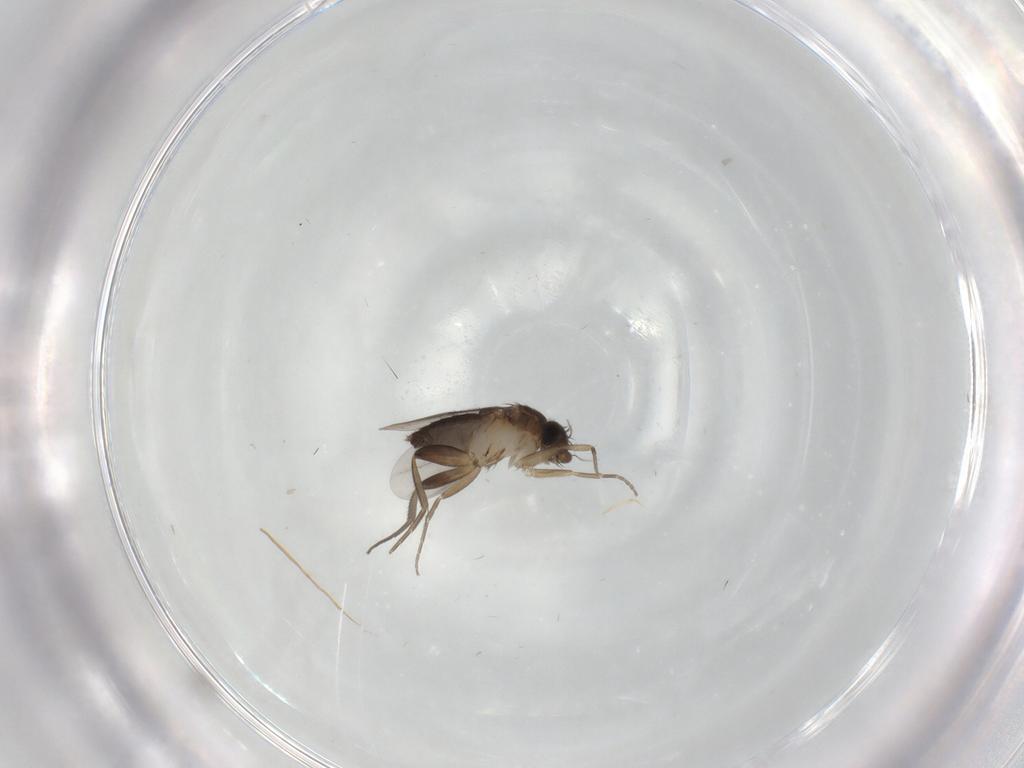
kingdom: Animalia
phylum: Arthropoda
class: Insecta
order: Diptera
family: Phoridae
